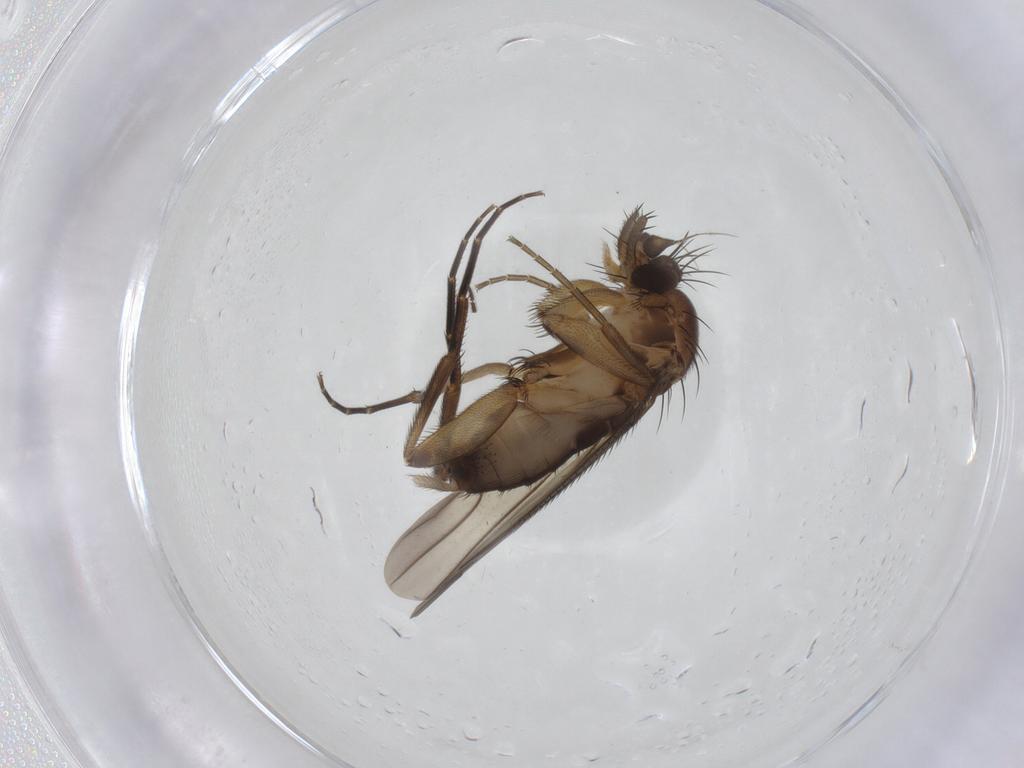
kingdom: Animalia
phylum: Arthropoda
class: Insecta
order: Diptera
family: Phoridae
